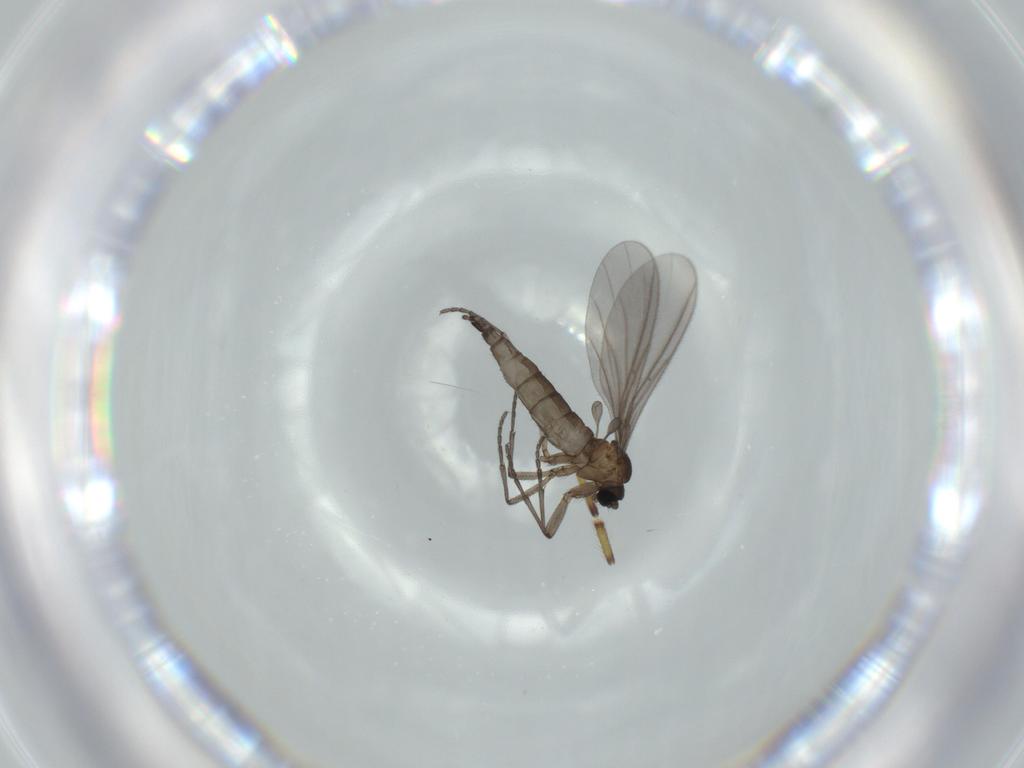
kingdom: Animalia
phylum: Arthropoda
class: Insecta
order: Diptera
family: Sciaridae
